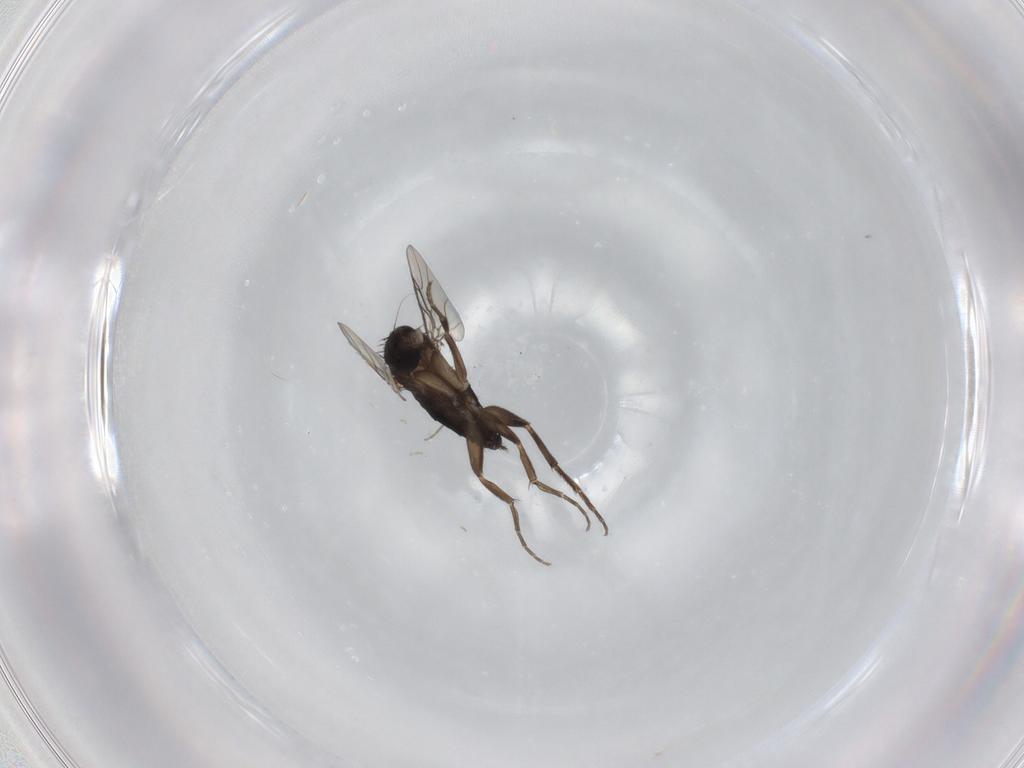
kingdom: Animalia
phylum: Arthropoda
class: Insecta
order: Diptera
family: Phoridae
